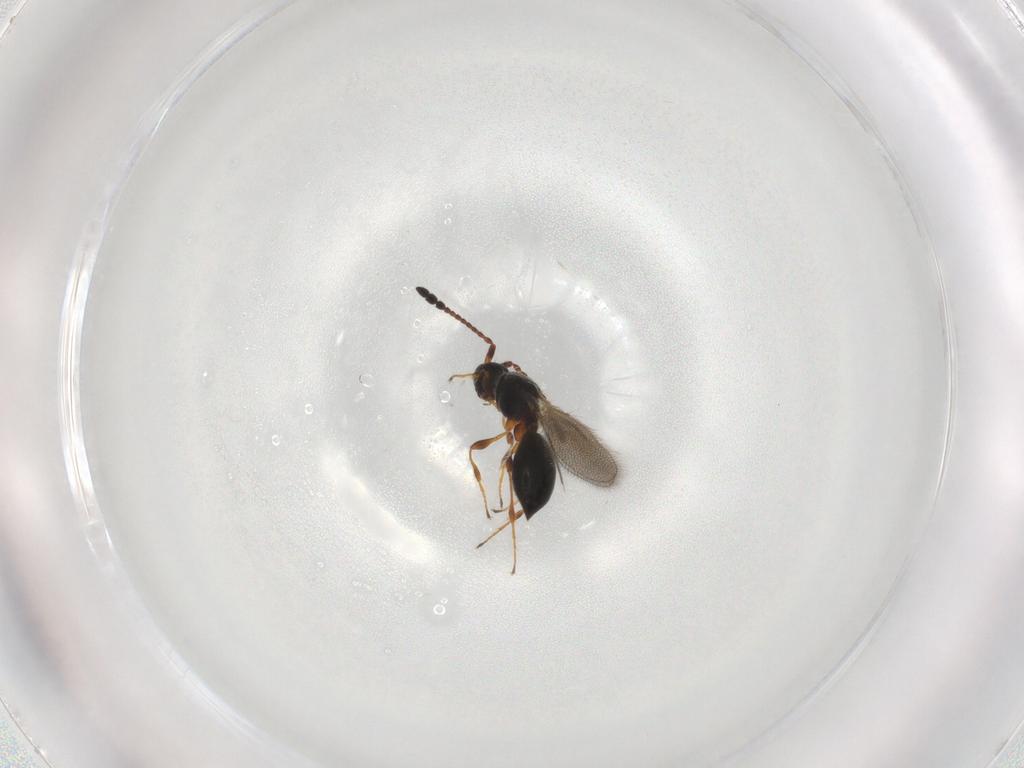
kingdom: Animalia
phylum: Arthropoda
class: Insecta
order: Hymenoptera
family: Diapriidae
